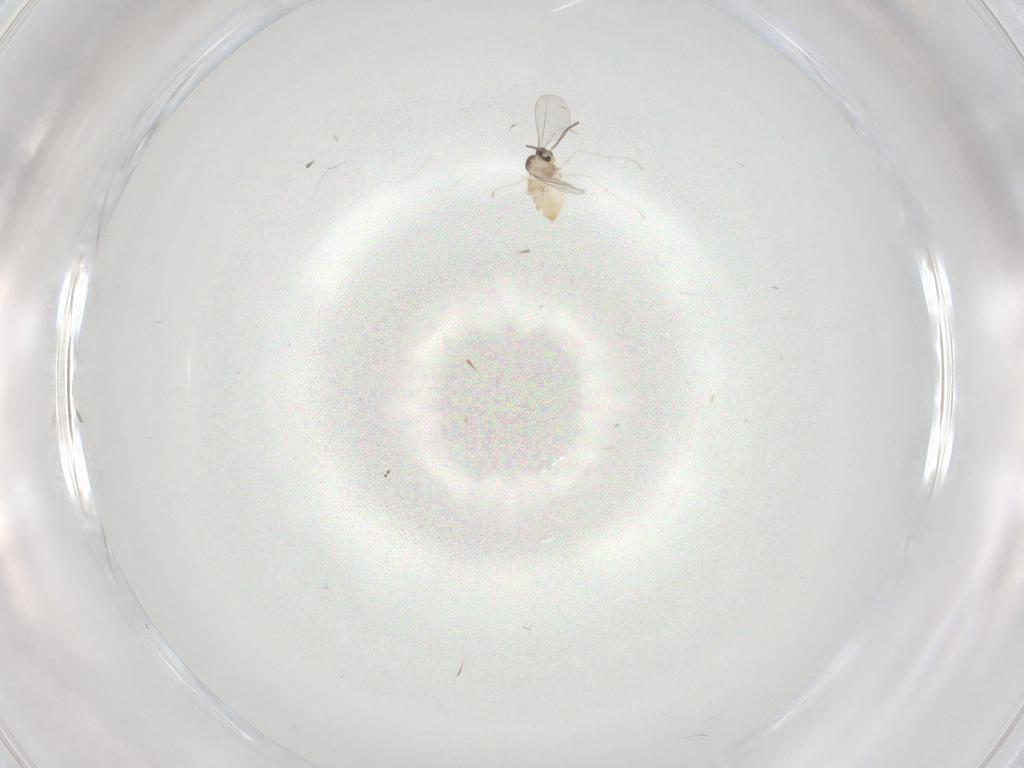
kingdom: Animalia
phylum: Arthropoda
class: Insecta
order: Diptera
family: Cecidomyiidae
